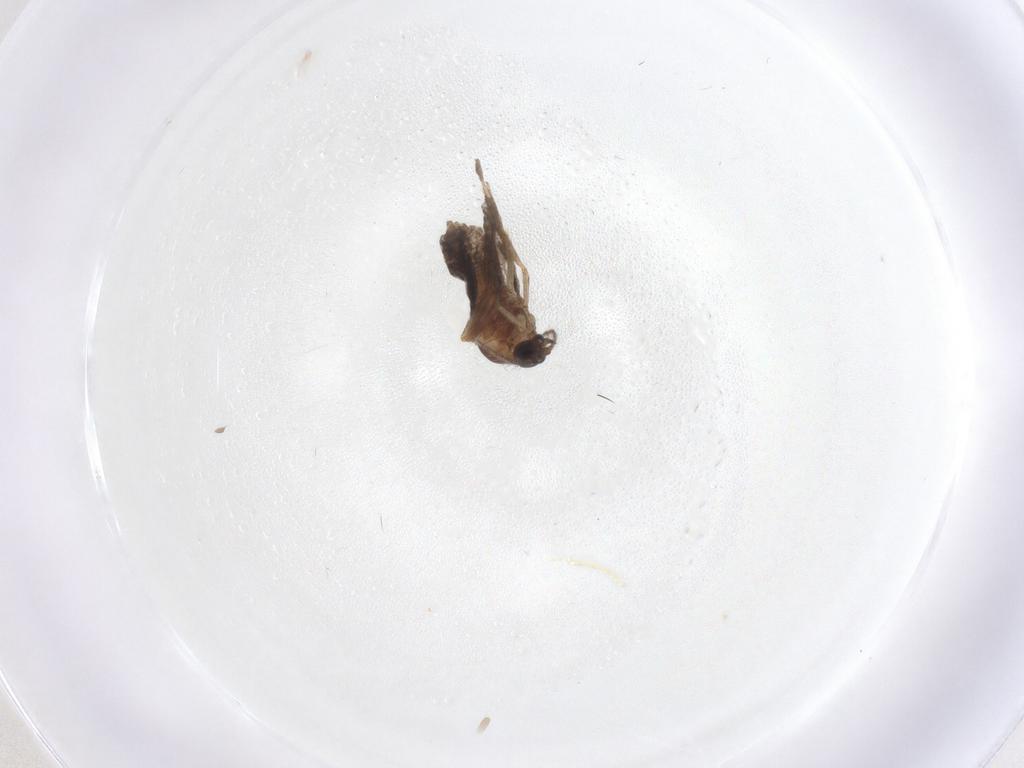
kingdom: Animalia
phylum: Arthropoda
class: Insecta
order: Diptera
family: Ceratopogonidae
